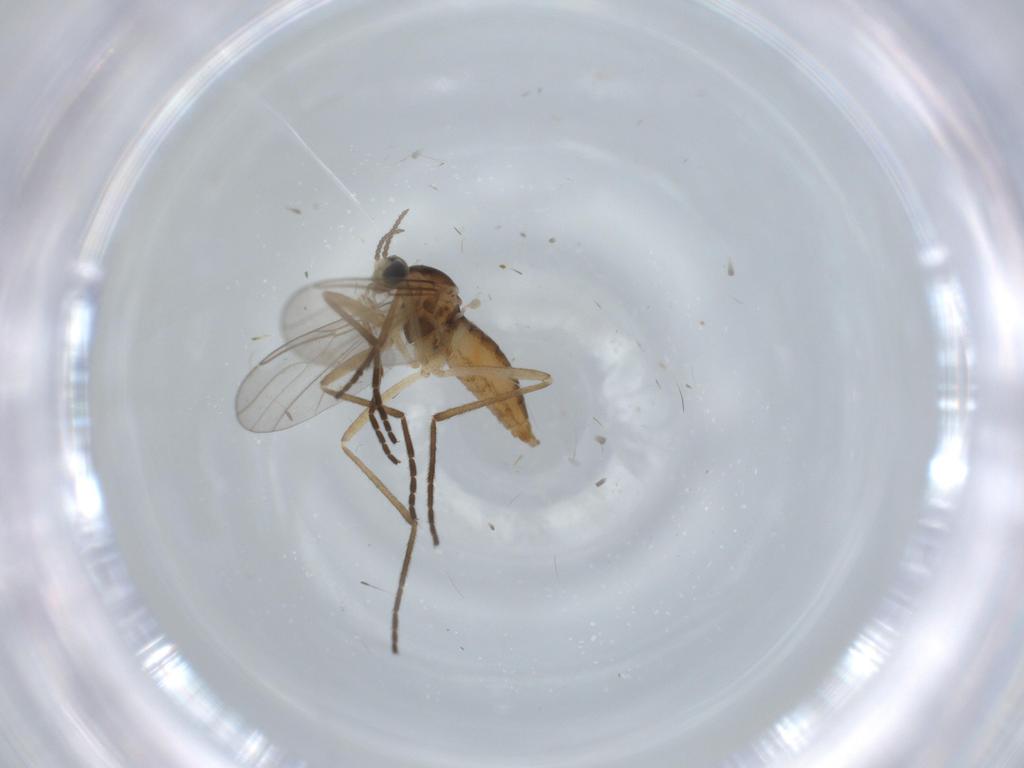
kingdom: Animalia
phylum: Arthropoda
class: Insecta
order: Diptera
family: Cecidomyiidae
